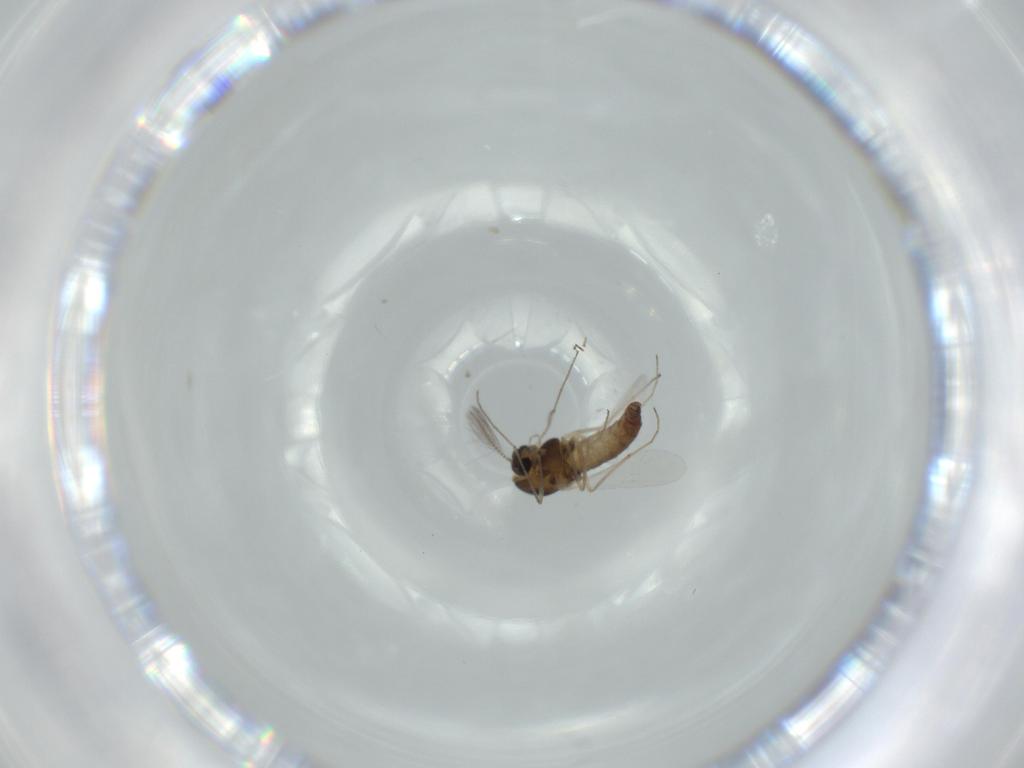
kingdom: Animalia
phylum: Arthropoda
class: Insecta
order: Diptera
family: Chironomidae
